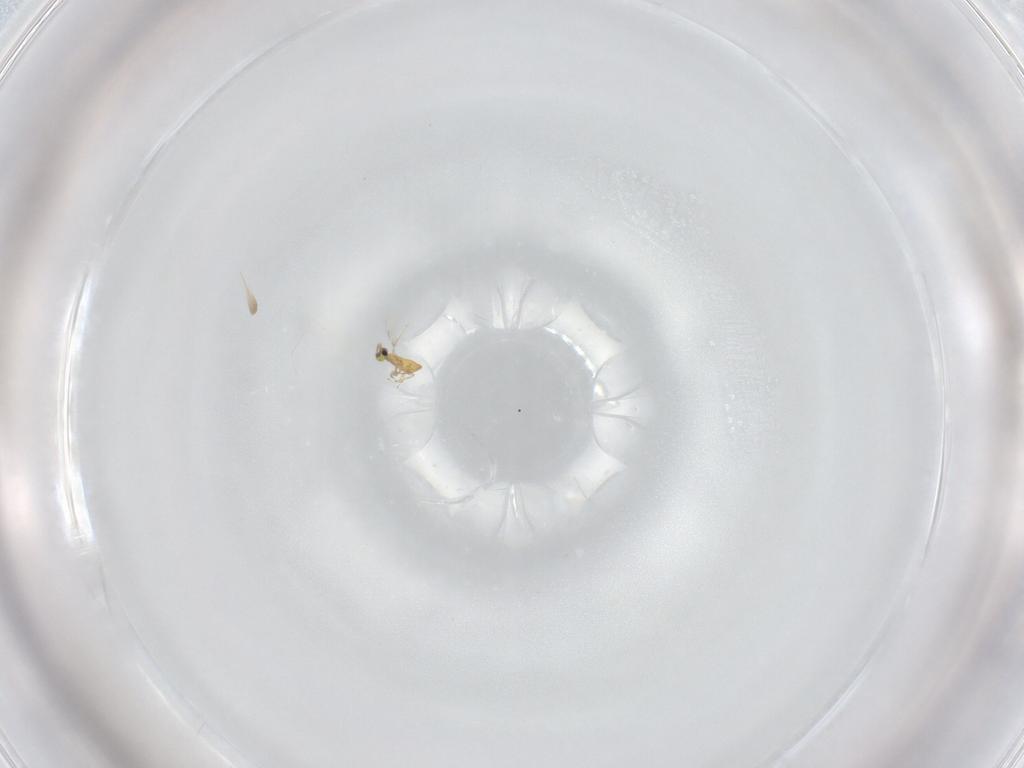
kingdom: Animalia
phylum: Arthropoda
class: Insecta
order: Hymenoptera
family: Trichogrammatidae
